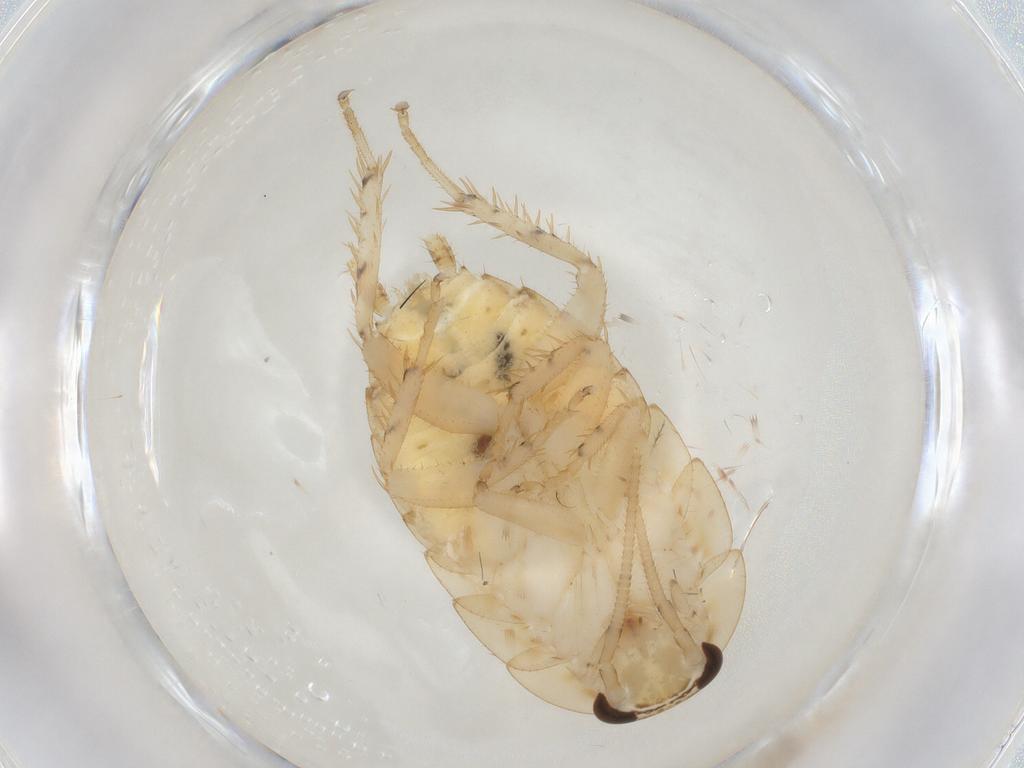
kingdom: Animalia
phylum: Arthropoda
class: Insecta
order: Blattodea
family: Ectobiidae
